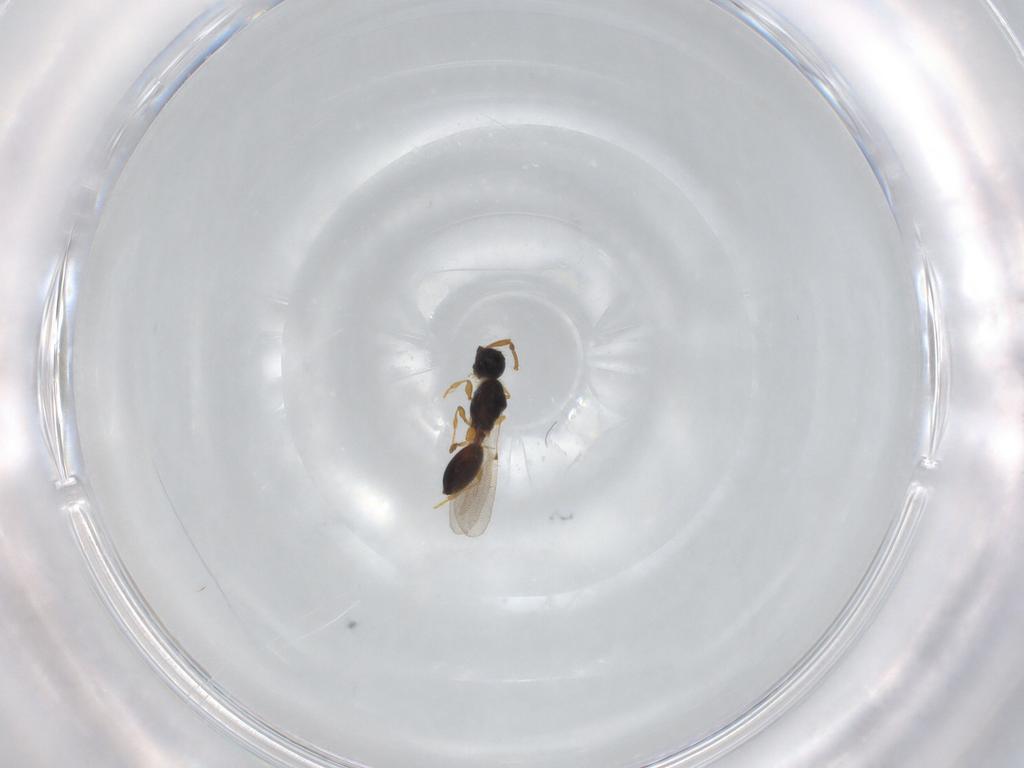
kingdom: Animalia
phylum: Arthropoda
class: Insecta
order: Hymenoptera
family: Diapriidae
